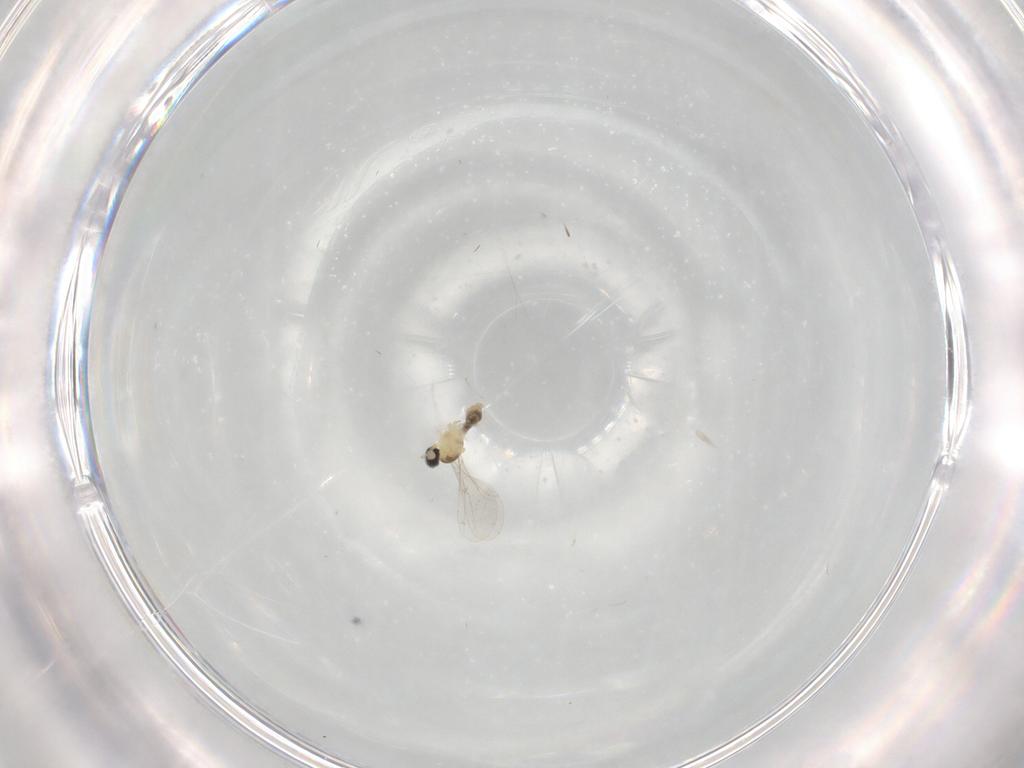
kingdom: Animalia
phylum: Arthropoda
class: Insecta
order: Diptera
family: Cecidomyiidae
